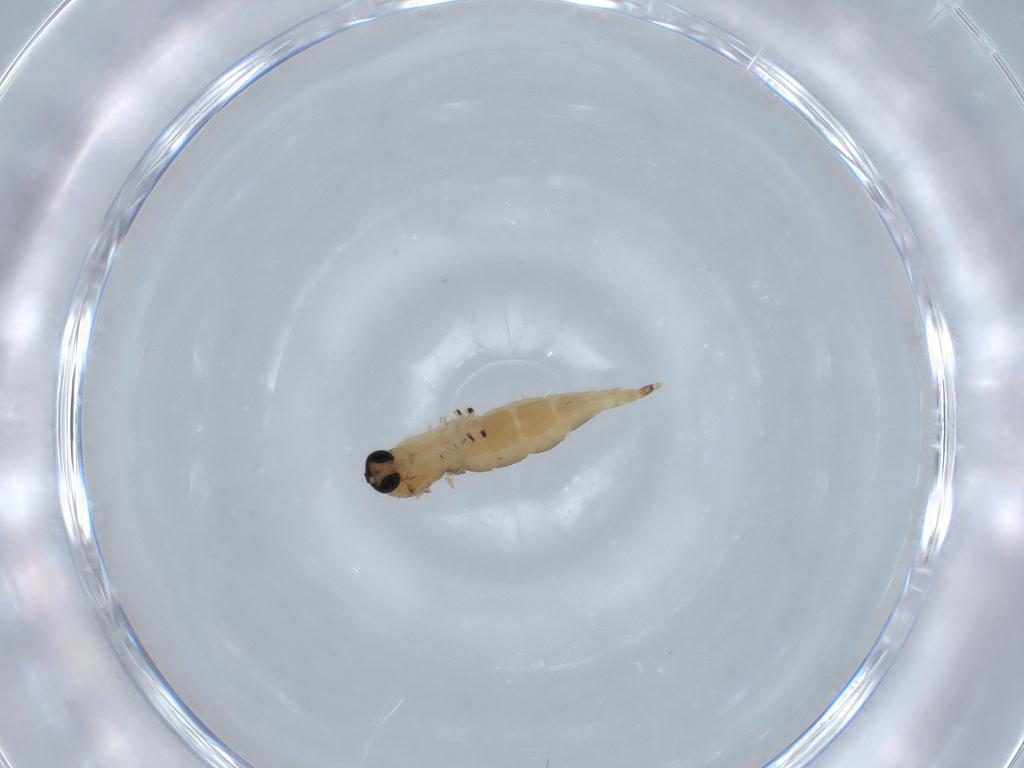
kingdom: Animalia
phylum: Arthropoda
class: Insecta
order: Diptera
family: Sciaridae
